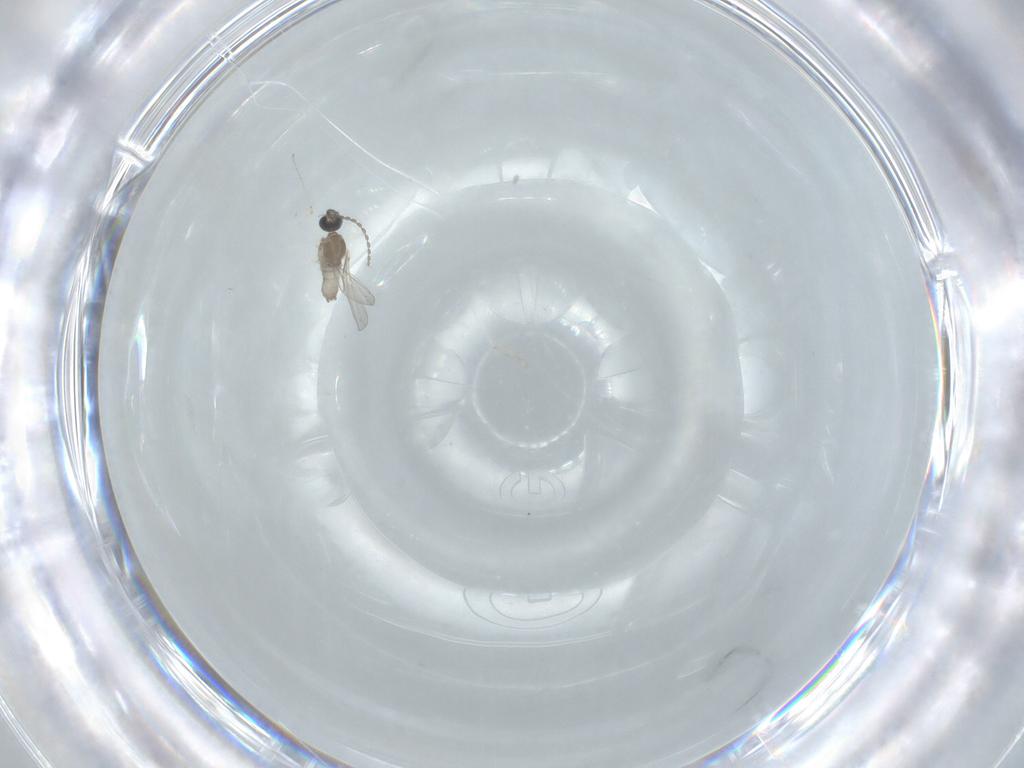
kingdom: Animalia
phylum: Arthropoda
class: Insecta
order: Diptera
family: Cecidomyiidae
